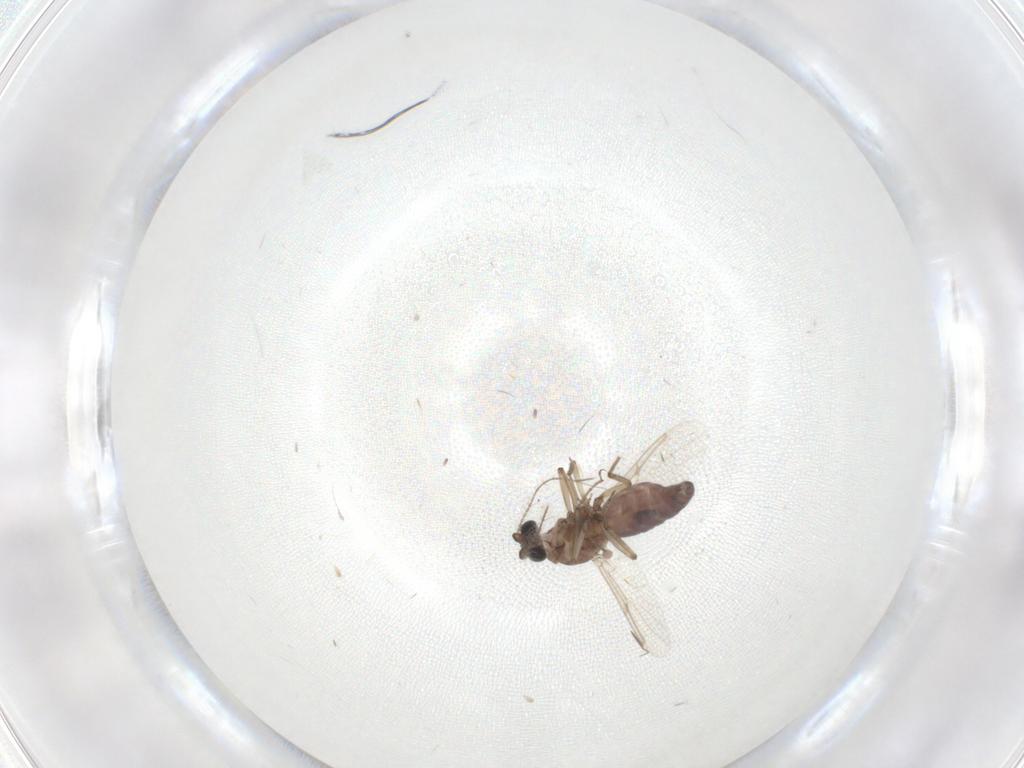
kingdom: Animalia
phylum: Arthropoda
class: Insecta
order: Diptera
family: Ceratopogonidae
